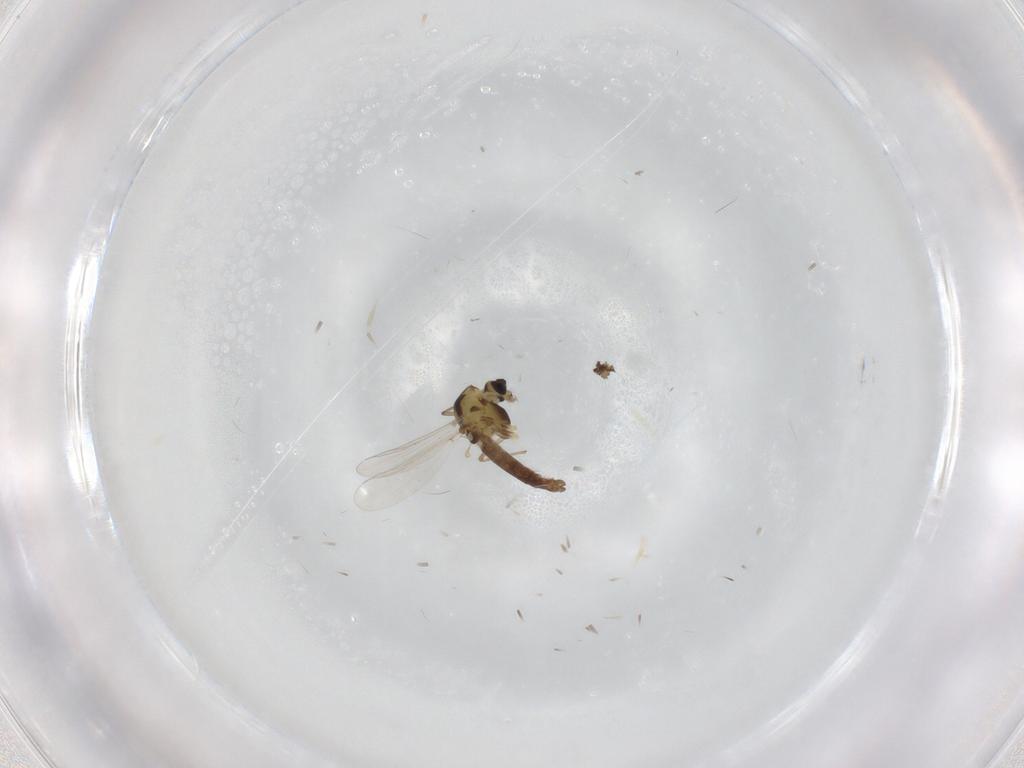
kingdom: Animalia
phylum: Arthropoda
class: Insecta
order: Diptera
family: Chironomidae
